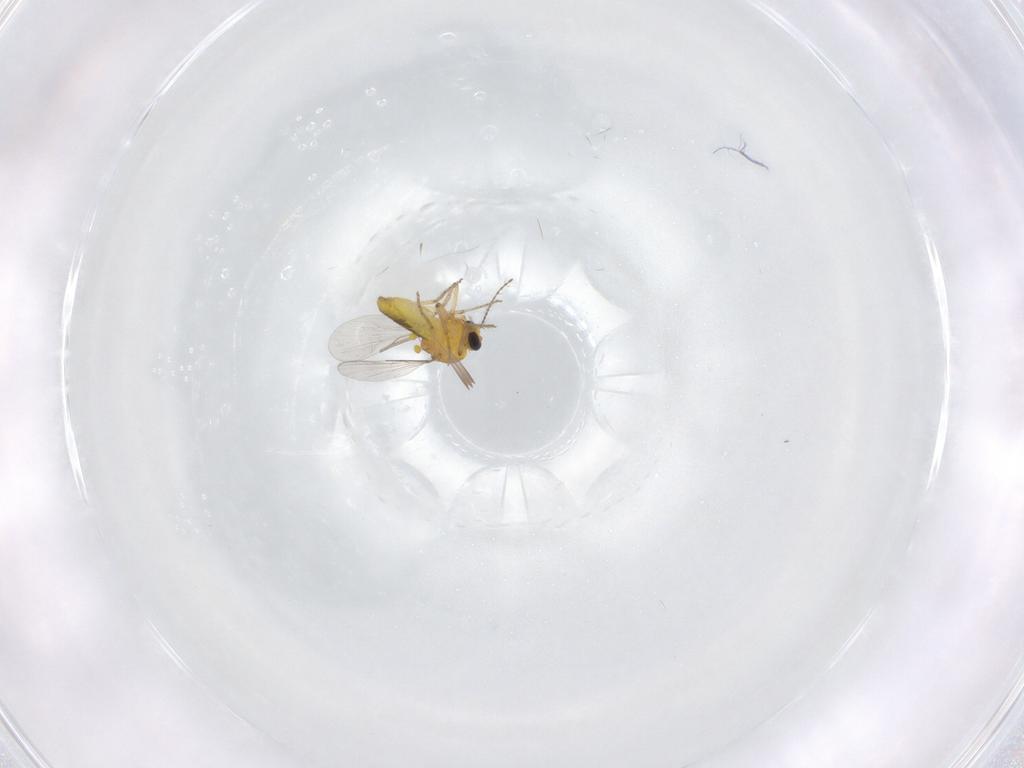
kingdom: Animalia
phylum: Arthropoda
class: Insecta
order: Diptera
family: Ceratopogonidae
